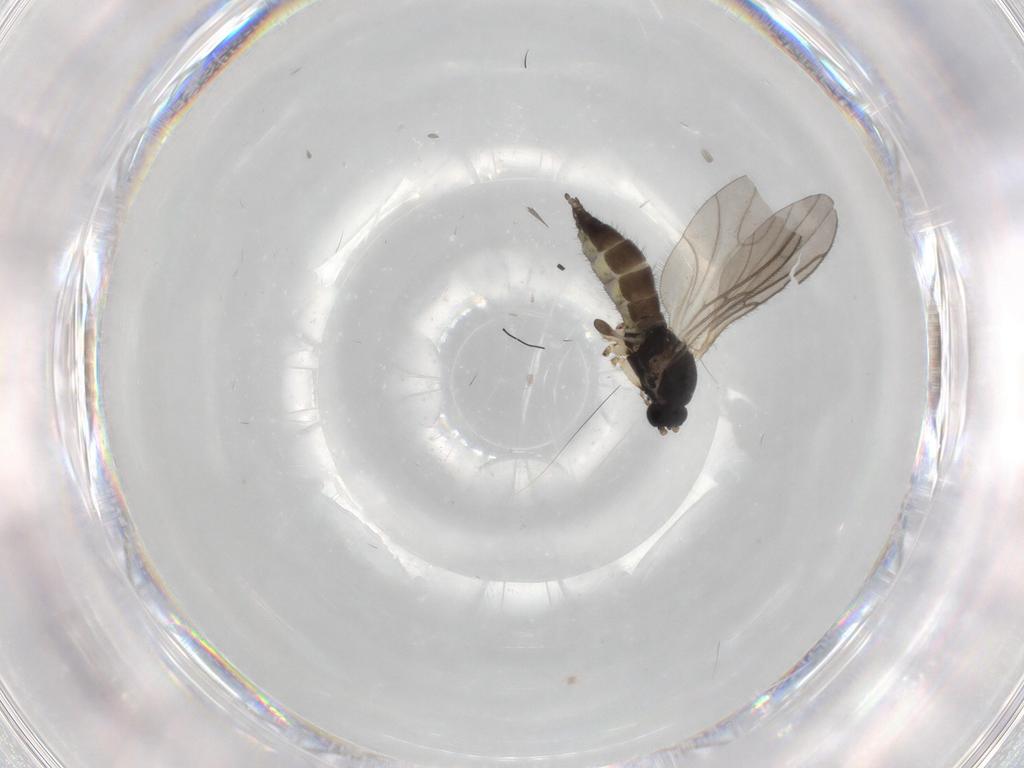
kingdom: Animalia
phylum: Arthropoda
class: Insecta
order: Diptera
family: Sciaridae
